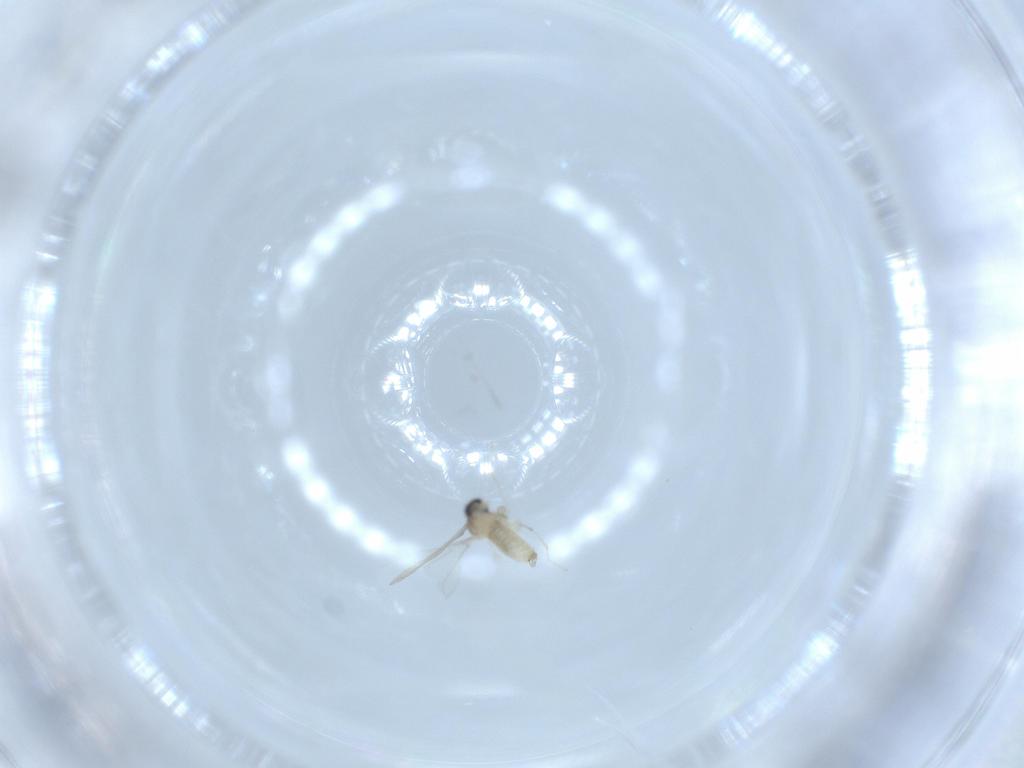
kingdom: Animalia
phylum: Arthropoda
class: Insecta
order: Diptera
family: Cecidomyiidae
